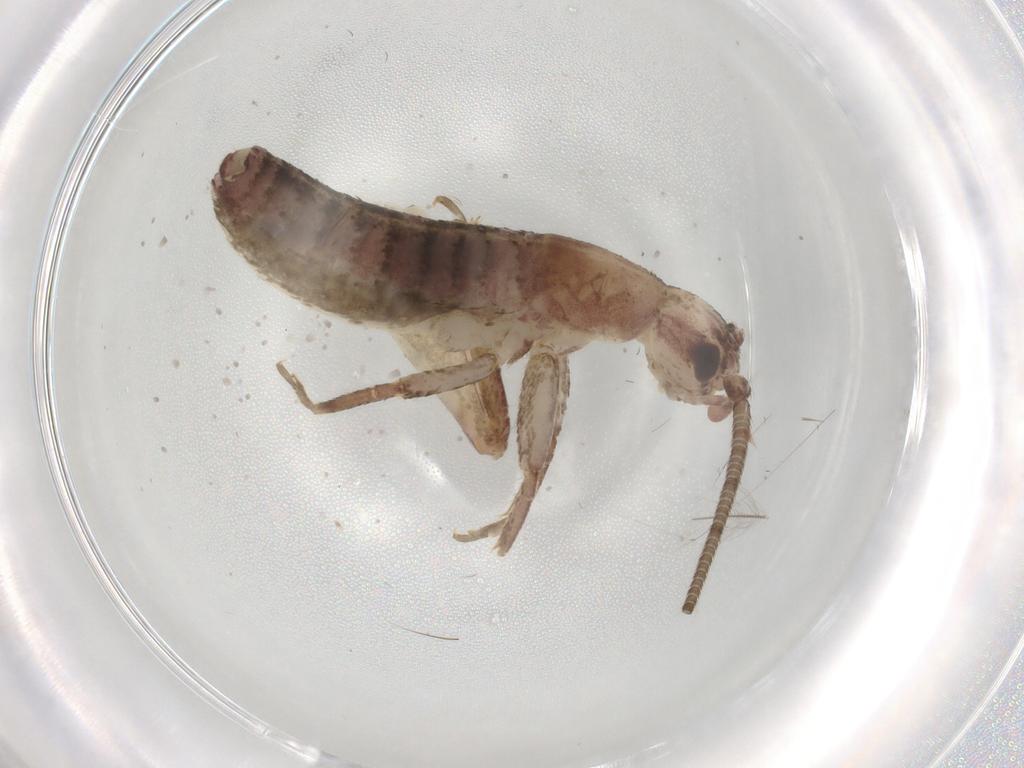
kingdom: Animalia
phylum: Arthropoda
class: Insecta
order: Orthoptera
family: Mogoplistidae
